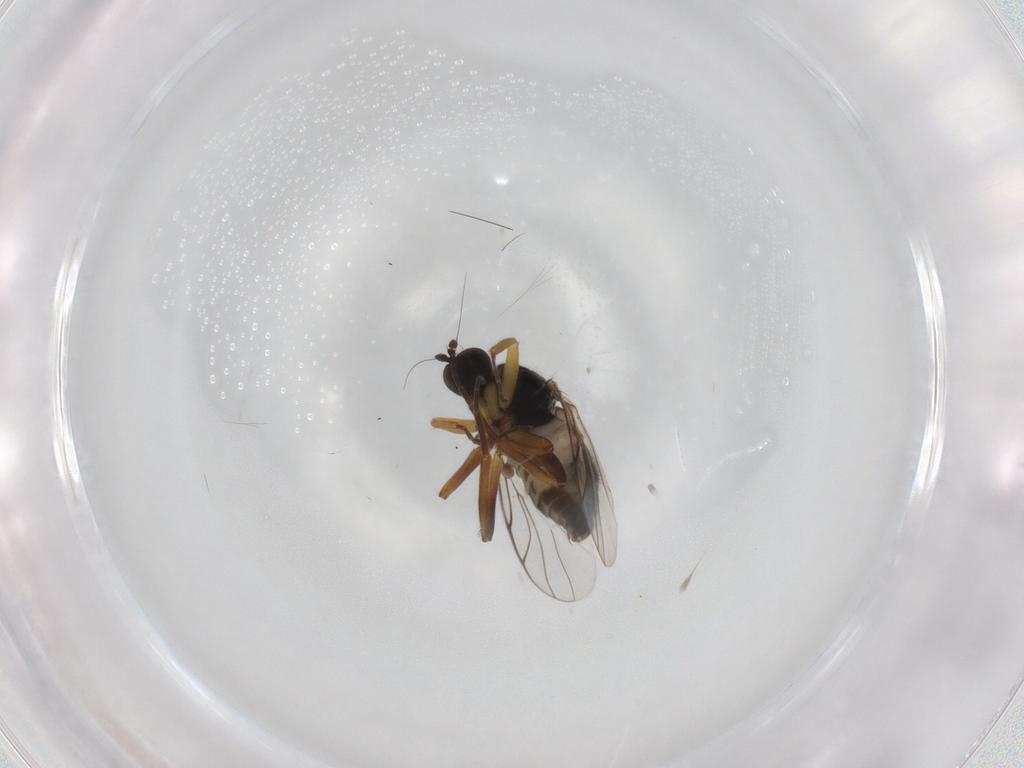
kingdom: Animalia
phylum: Arthropoda
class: Insecta
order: Diptera
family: Hybotidae
